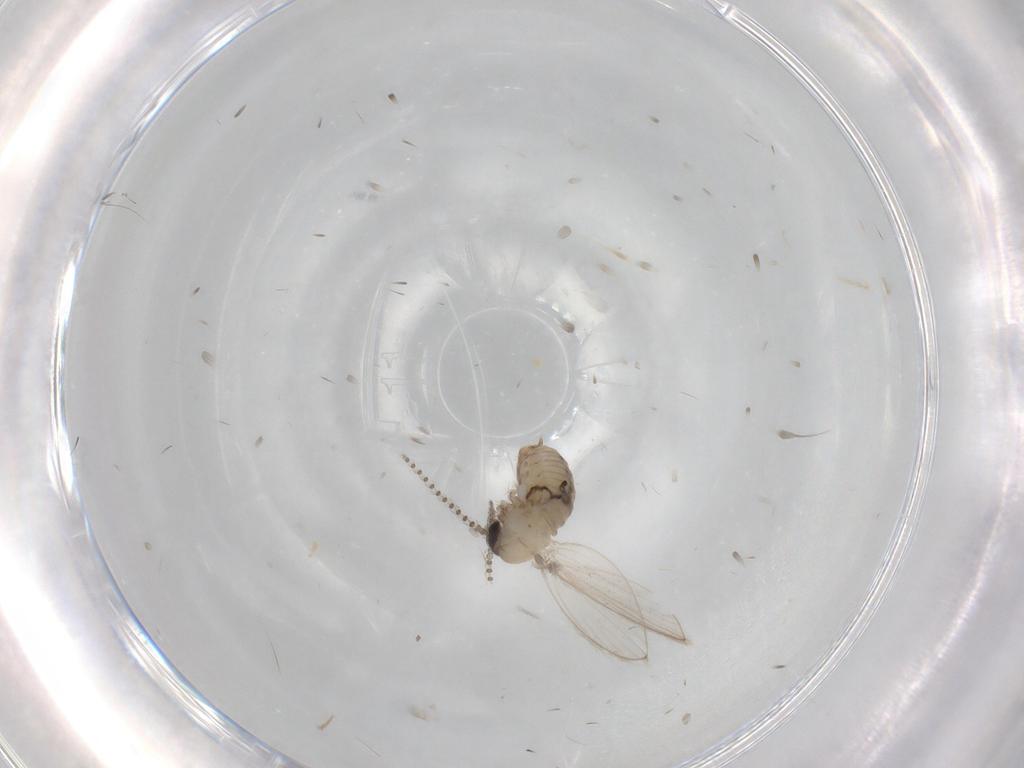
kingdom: Animalia
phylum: Arthropoda
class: Insecta
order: Diptera
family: Psychodidae
